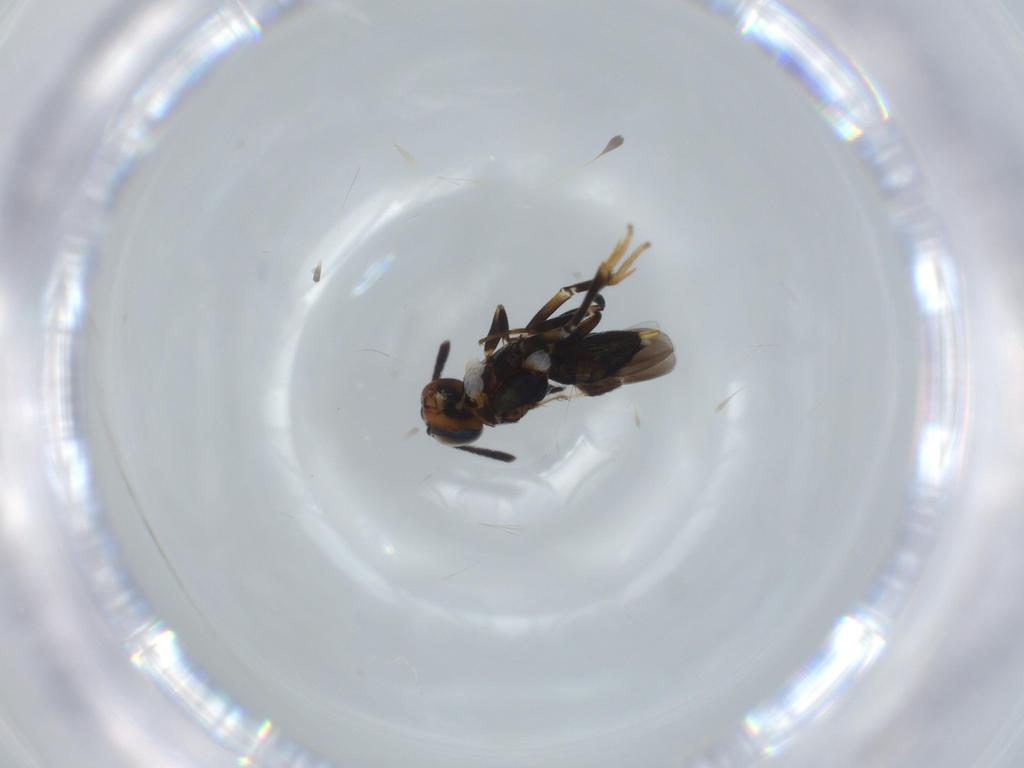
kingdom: Animalia
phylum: Arthropoda
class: Insecta
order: Hymenoptera
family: Encyrtidae
